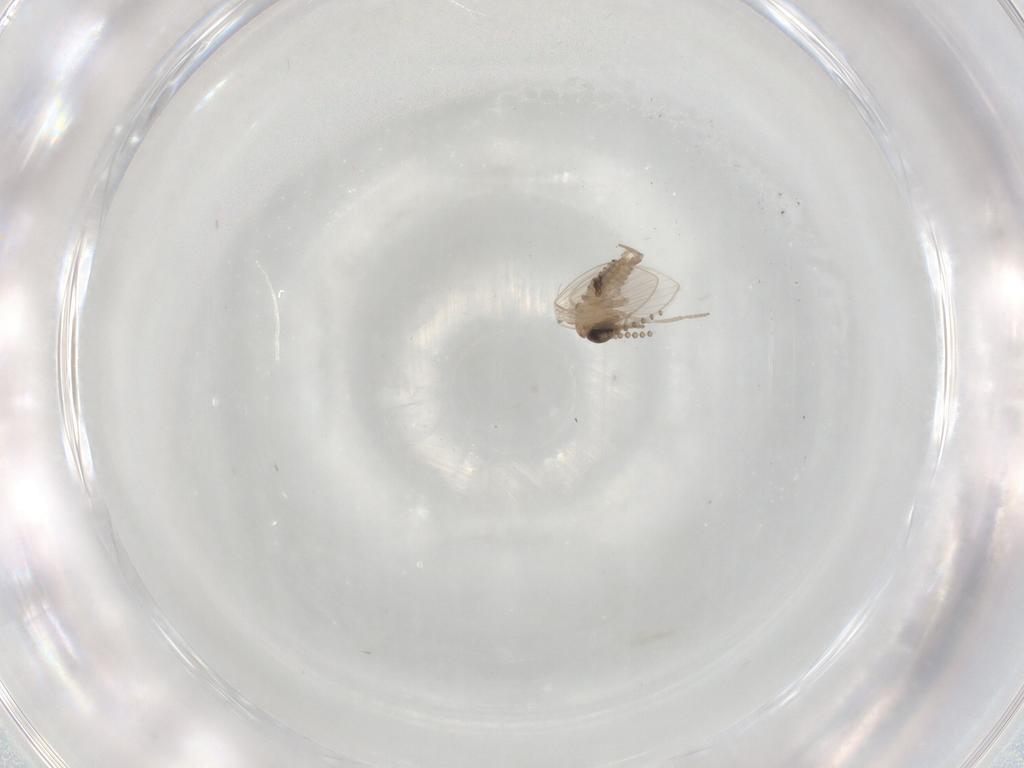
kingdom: Animalia
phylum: Arthropoda
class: Insecta
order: Diptera
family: Psychodidae
